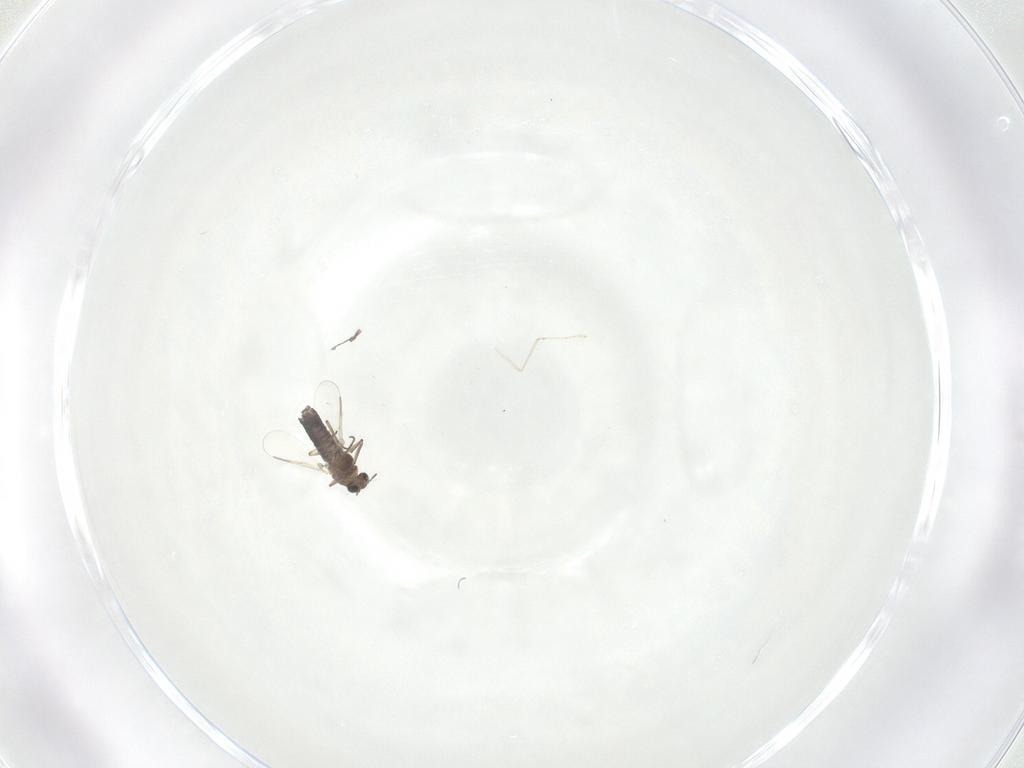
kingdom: Animalia
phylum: Arthropoda
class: Insecta
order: Diptera
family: Chironomidae
